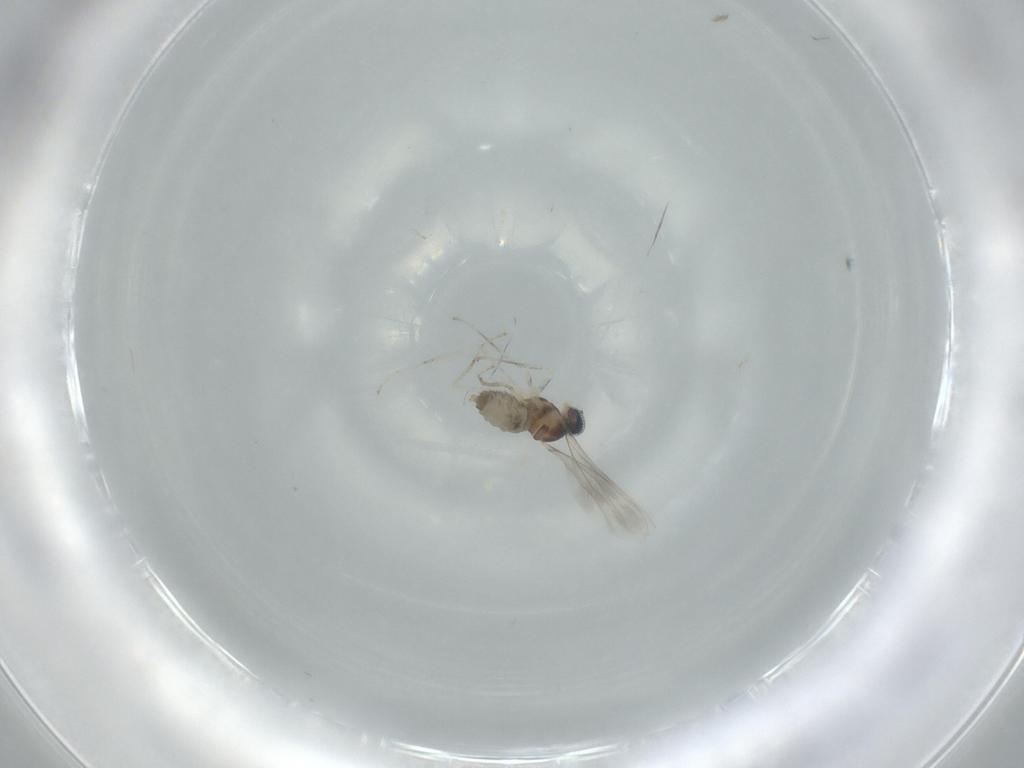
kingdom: Animalia
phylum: Arthropoda
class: Insecta
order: Diptera
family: Cecidomyiidae
